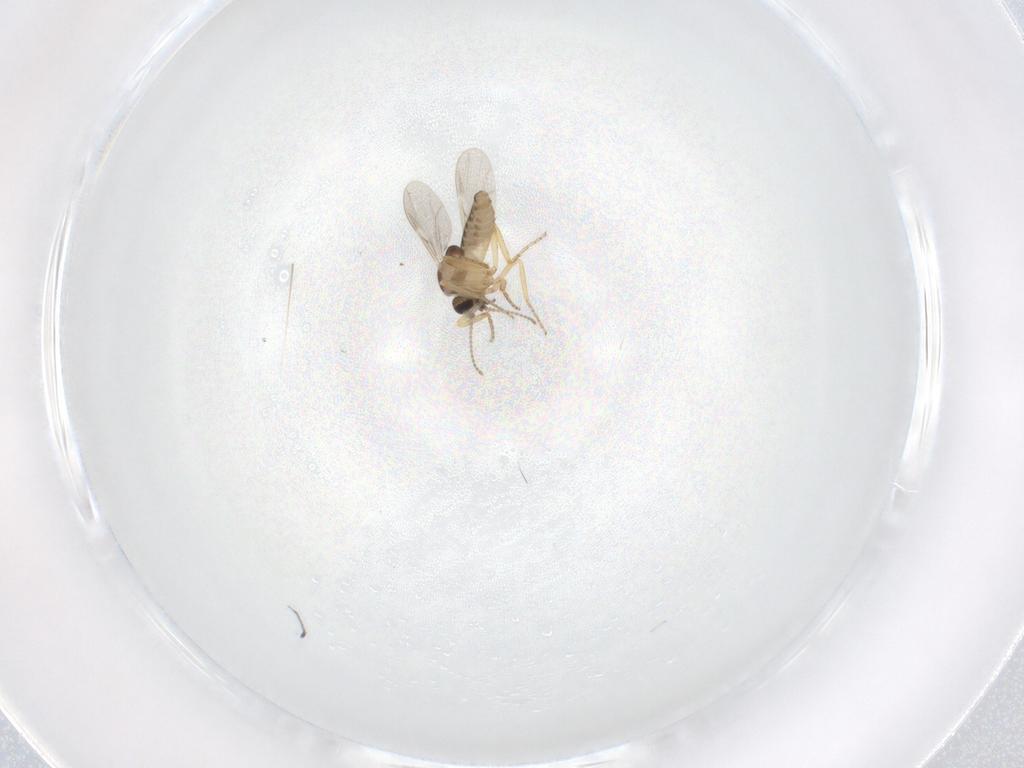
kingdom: Animalia
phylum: Arthropoda
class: Insecta
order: Diptera
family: Ceratopogonidae
